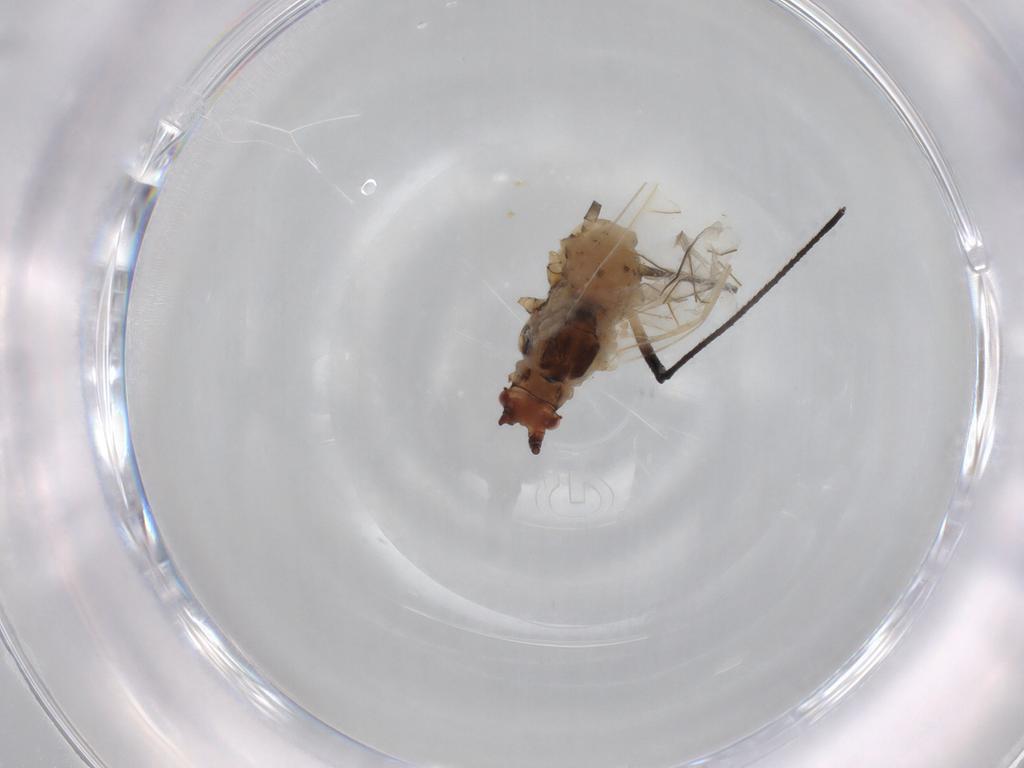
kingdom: Animalia
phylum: Arthropoda
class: Insecta
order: Hemiptera
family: Aphididae
